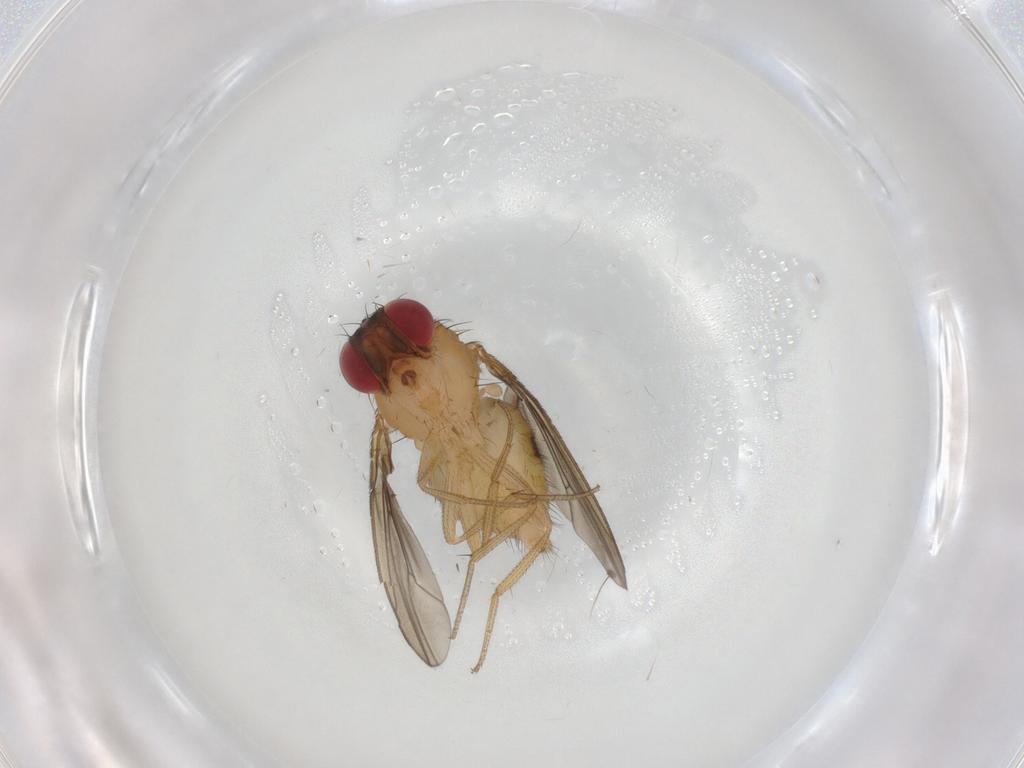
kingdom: Animalia
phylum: Arthropoda
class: Insecta
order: Diptera
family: Drosophilidae
